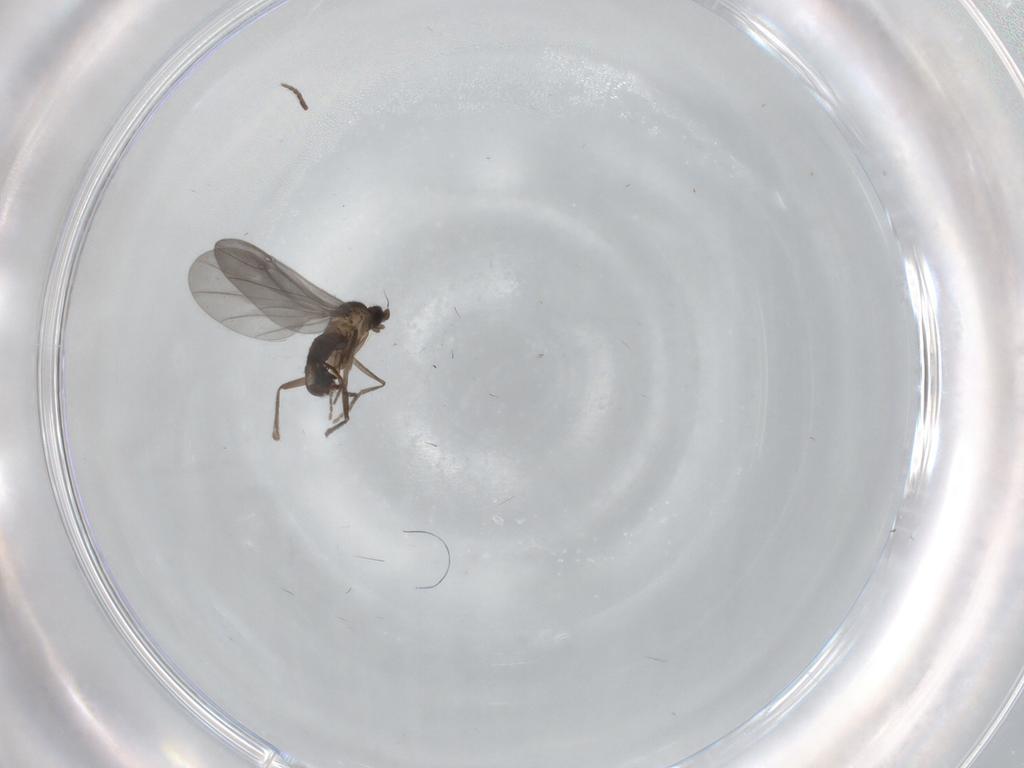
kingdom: Animalia
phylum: Arthropoda
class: Insecta
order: Diptera
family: Phoridae
